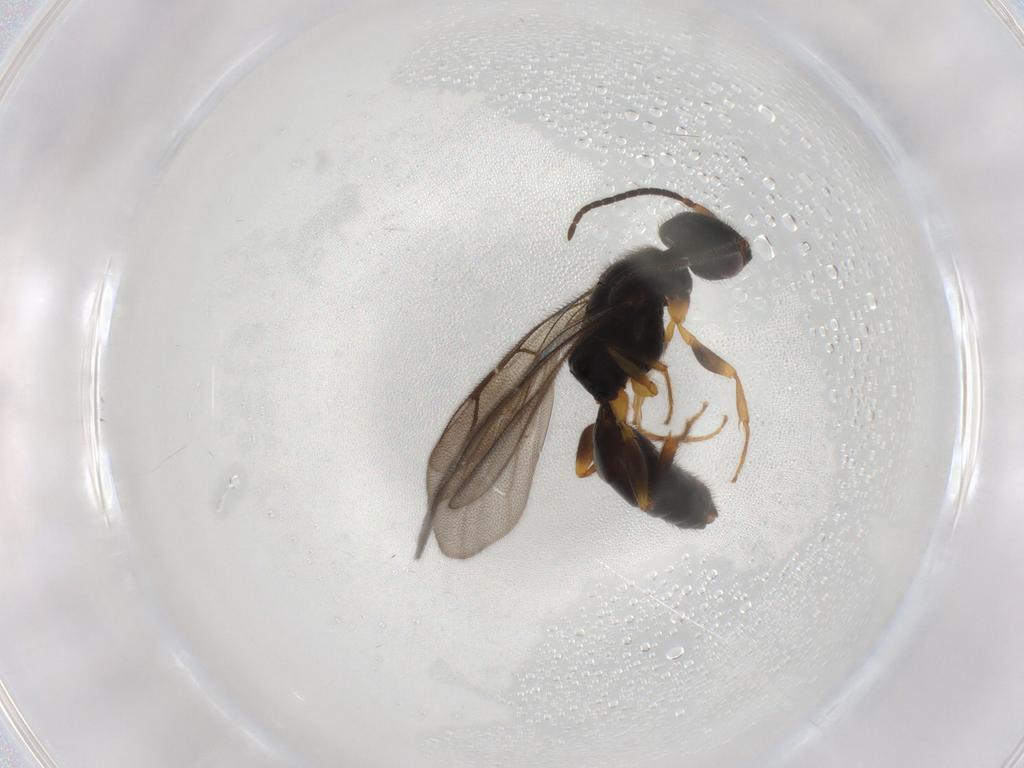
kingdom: Animalia
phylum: Arthropoda
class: Insecta
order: Hymenoptera
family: Bethylidae
